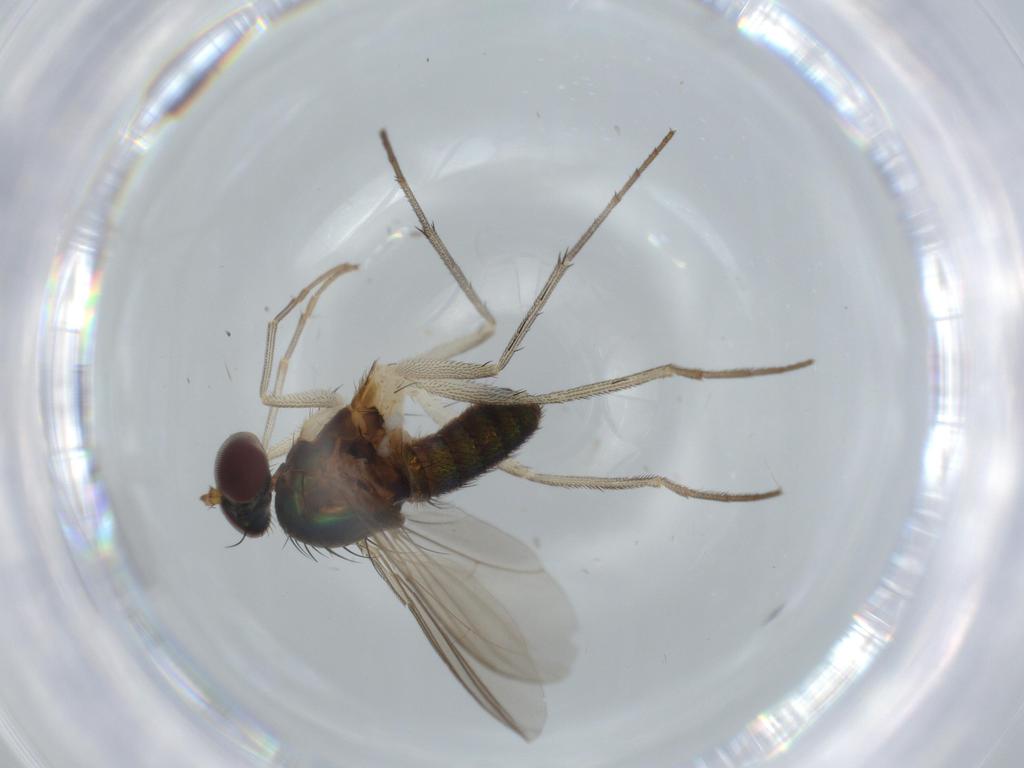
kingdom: Animalia
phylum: Arthropoda
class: Insecta
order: Diptera
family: Dolichopodidae
